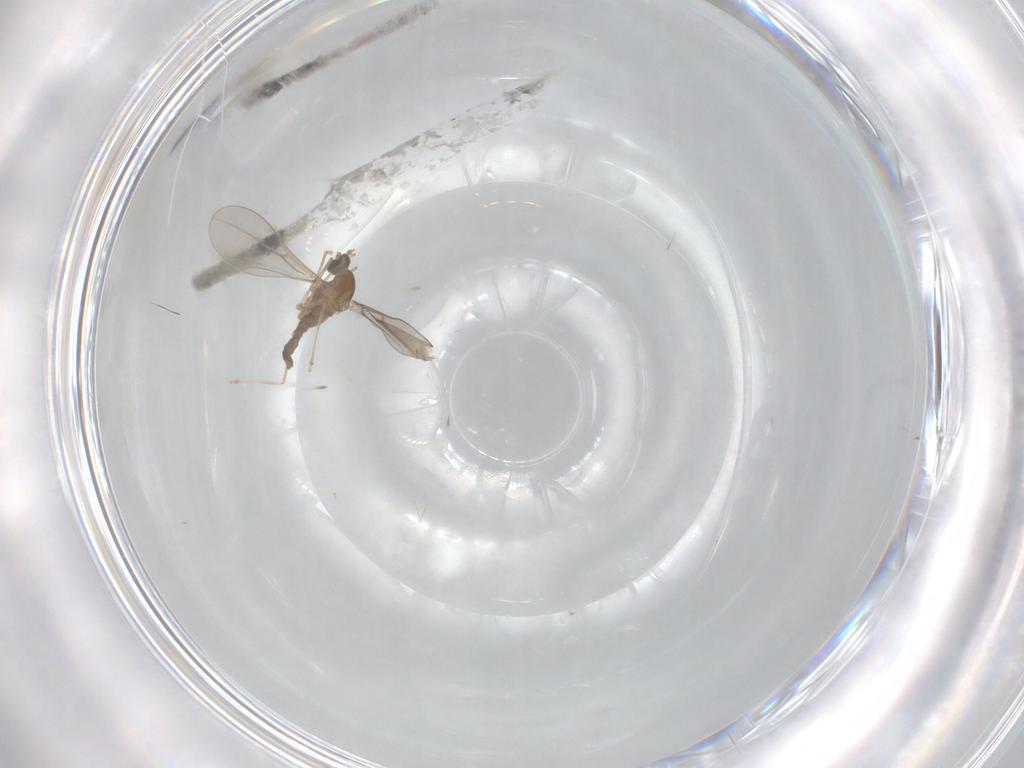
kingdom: Animalia
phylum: Arthropoda
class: Insecta
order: Diptera
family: Cecidomyiidae
